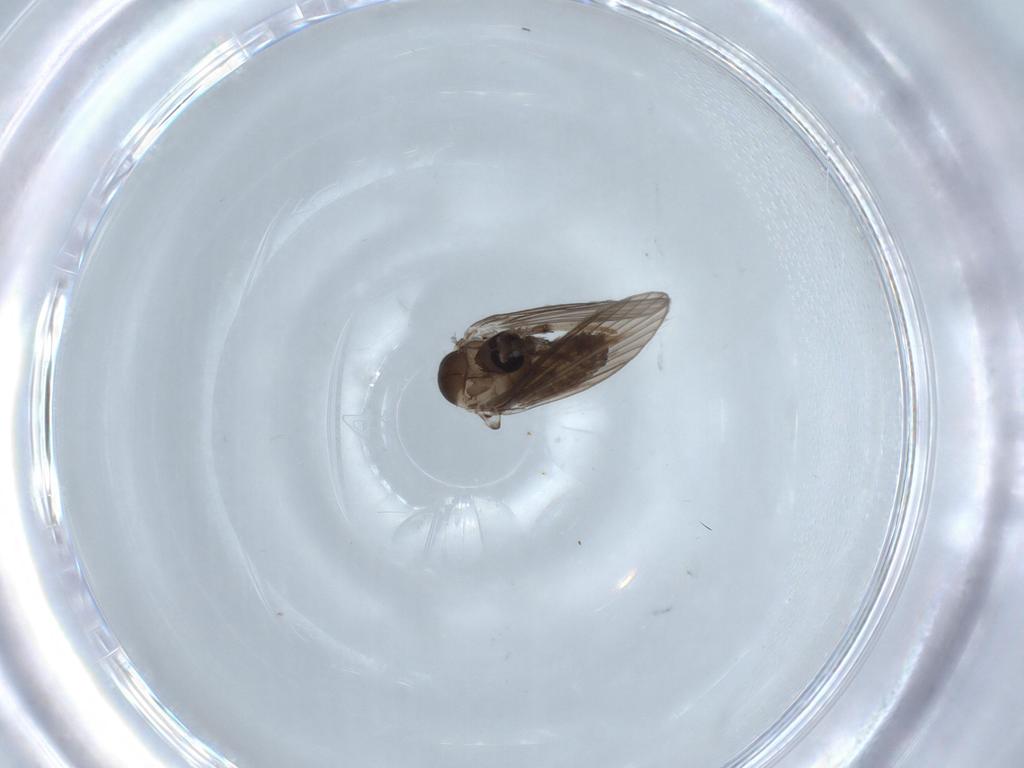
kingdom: Animalia
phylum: Arthropoda
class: Insecta
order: Diptera
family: Psychodidae
